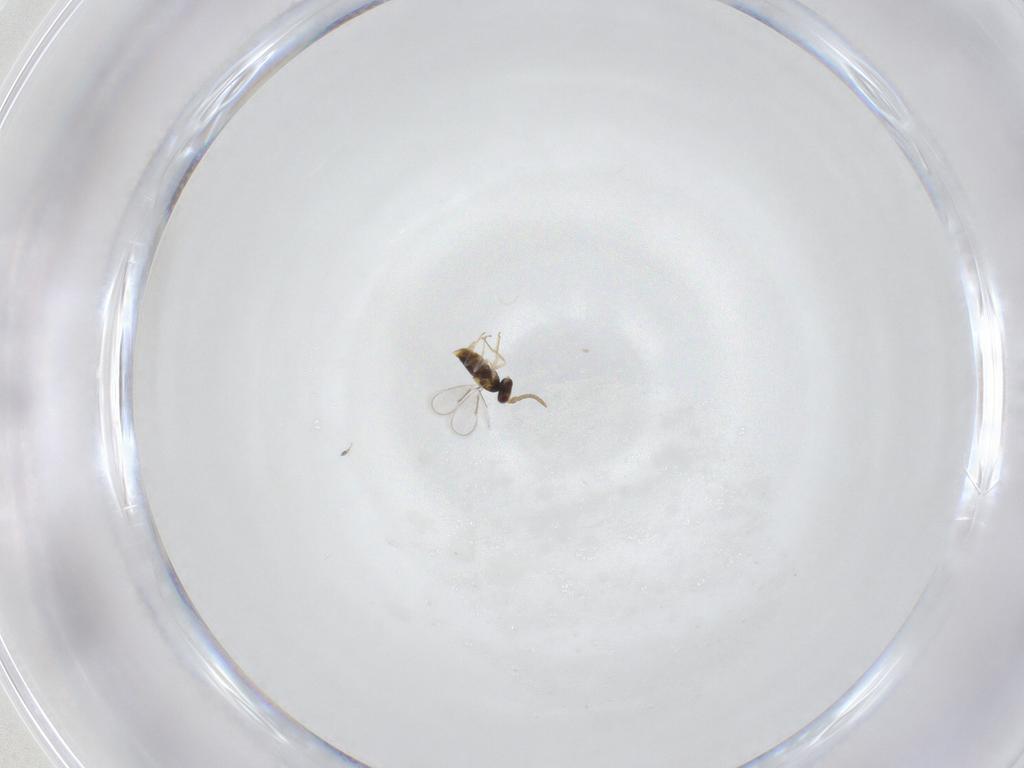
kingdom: Animalia
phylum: Arthropoda
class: Insecta
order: Hymenoptera
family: Aphelinidae
